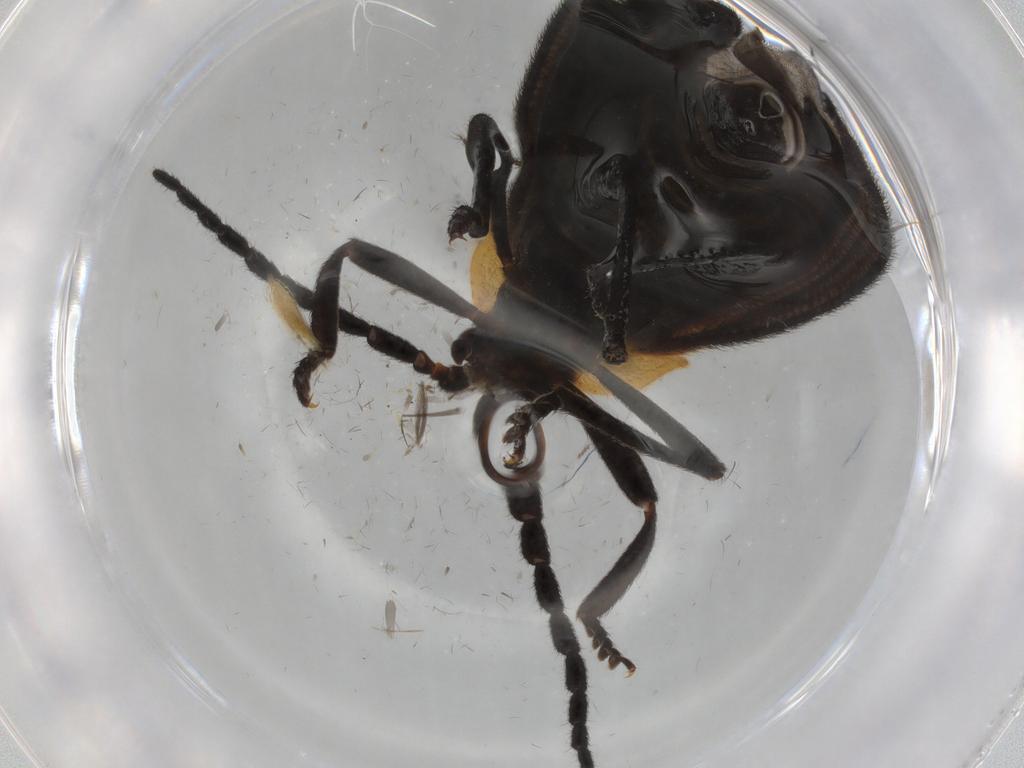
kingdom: Animalia
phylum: Arthropoda
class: Insecta
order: Coleoptera
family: Lycidae
